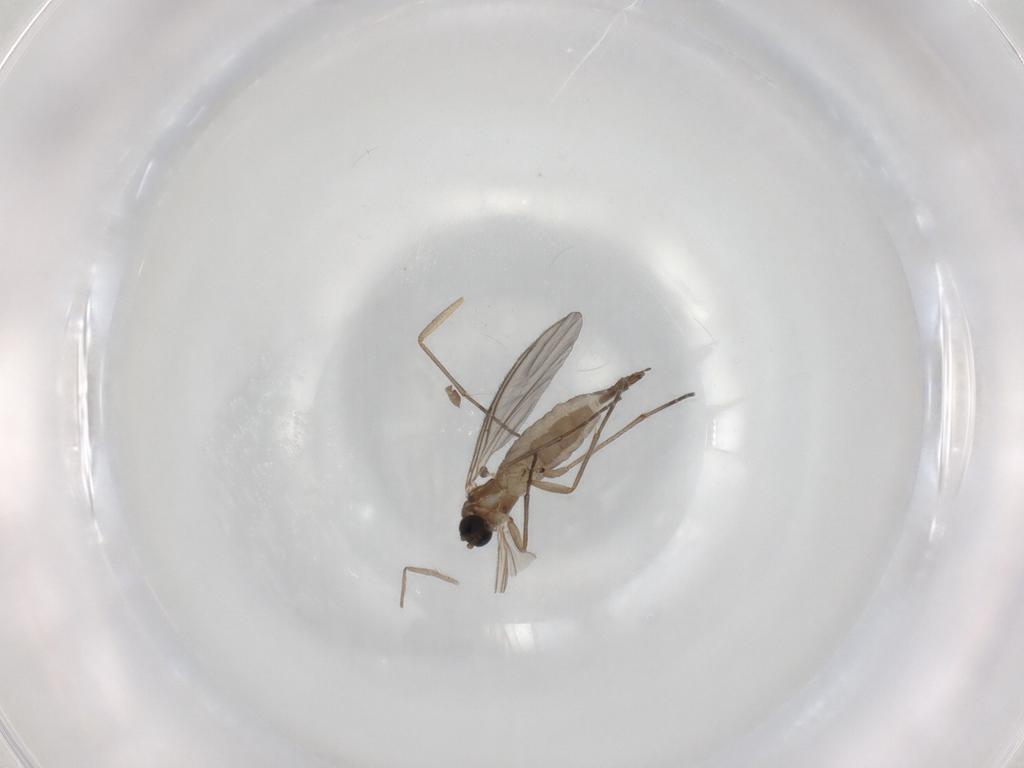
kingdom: Animalia
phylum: Arthropoda
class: Insecta
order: Diptera
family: Sciaridae
